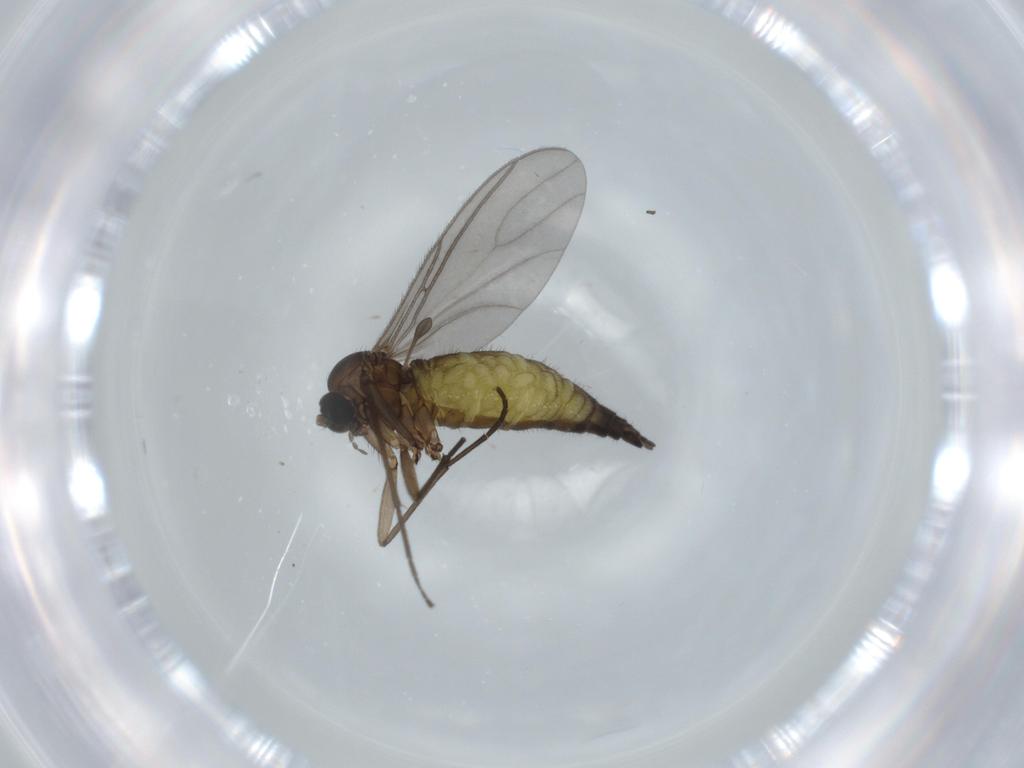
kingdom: Animalia
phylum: Arthropoda
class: Insecta
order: Diptera
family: Sciaridae
